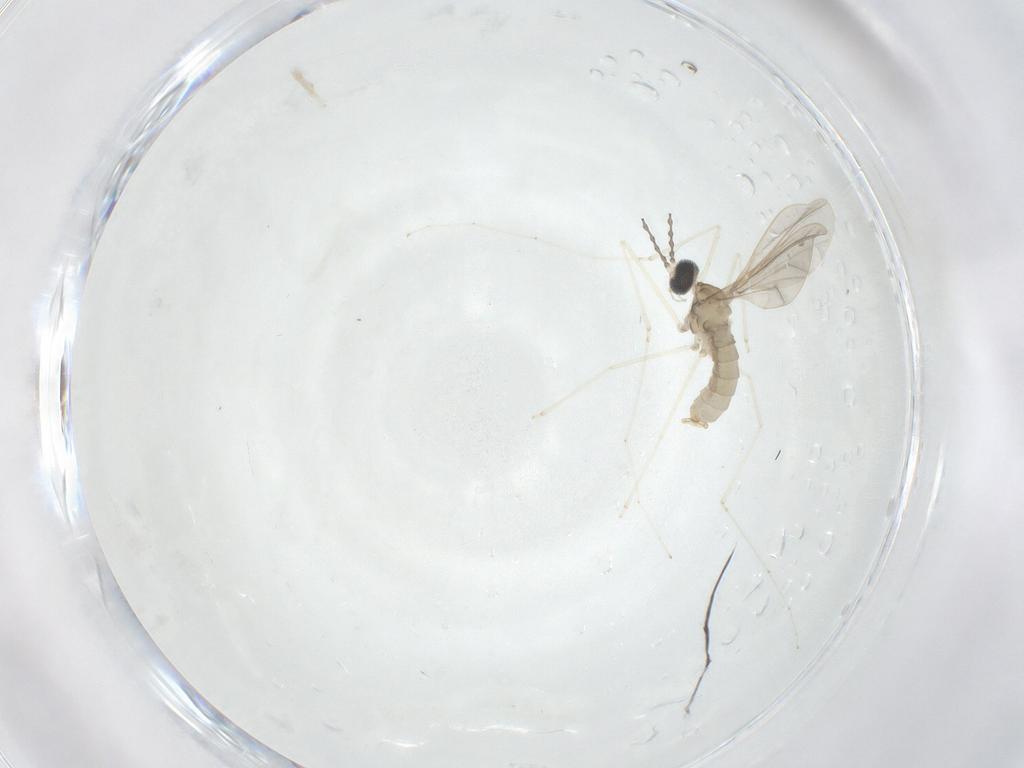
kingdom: Animalia
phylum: Arthropoda
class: Insecta
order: Diptera
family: Cecidomyiidae
